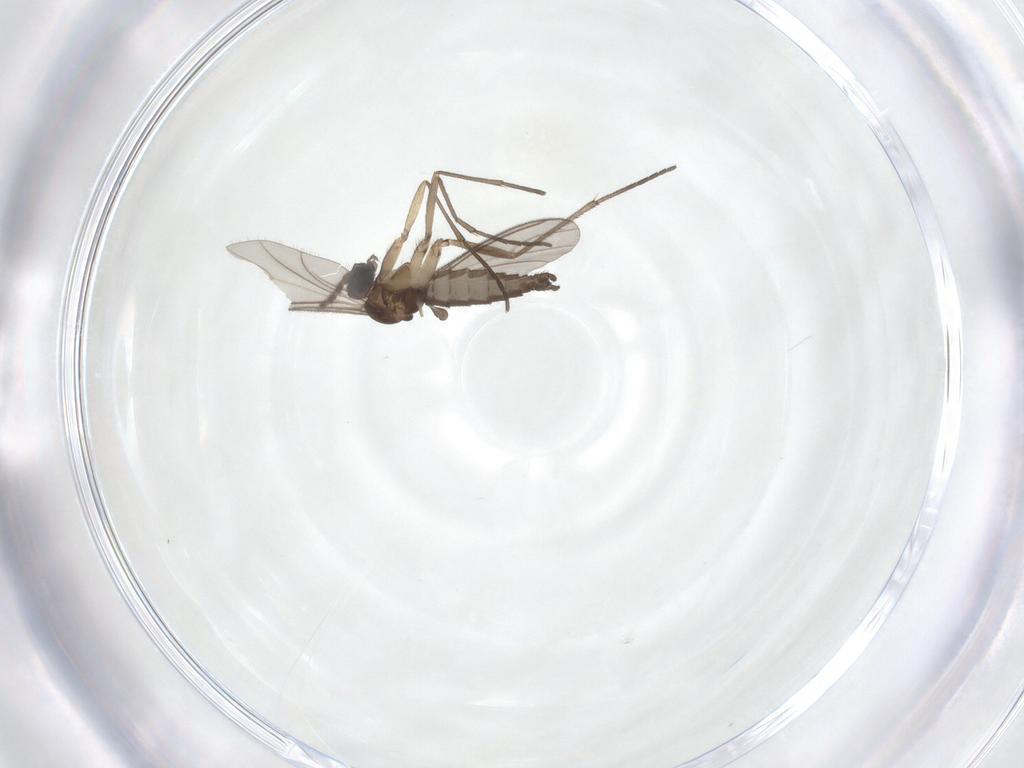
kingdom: Animalia
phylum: Arthropoda
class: Insecta
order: Diptera
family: Sciaridae
